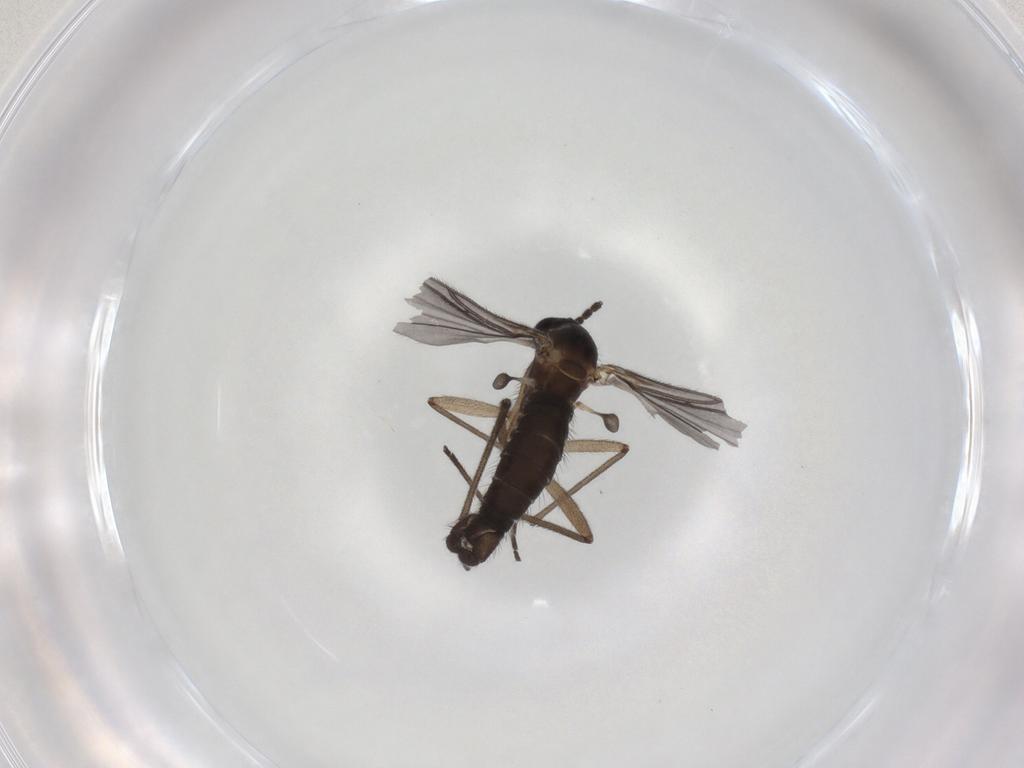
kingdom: Animalia
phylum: Arthropoda
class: Insecta
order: Diptera
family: Sciaridae
